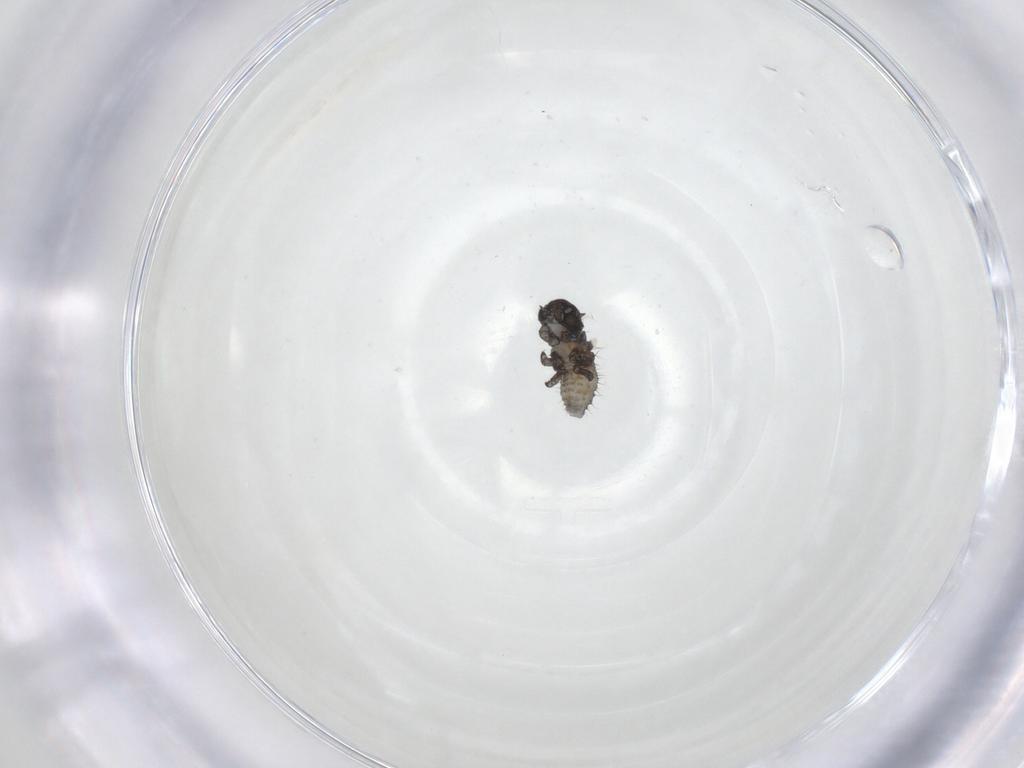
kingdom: Animalia
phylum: Arthropoda
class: Insecta
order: Coleoptera
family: Chrysomelidae
